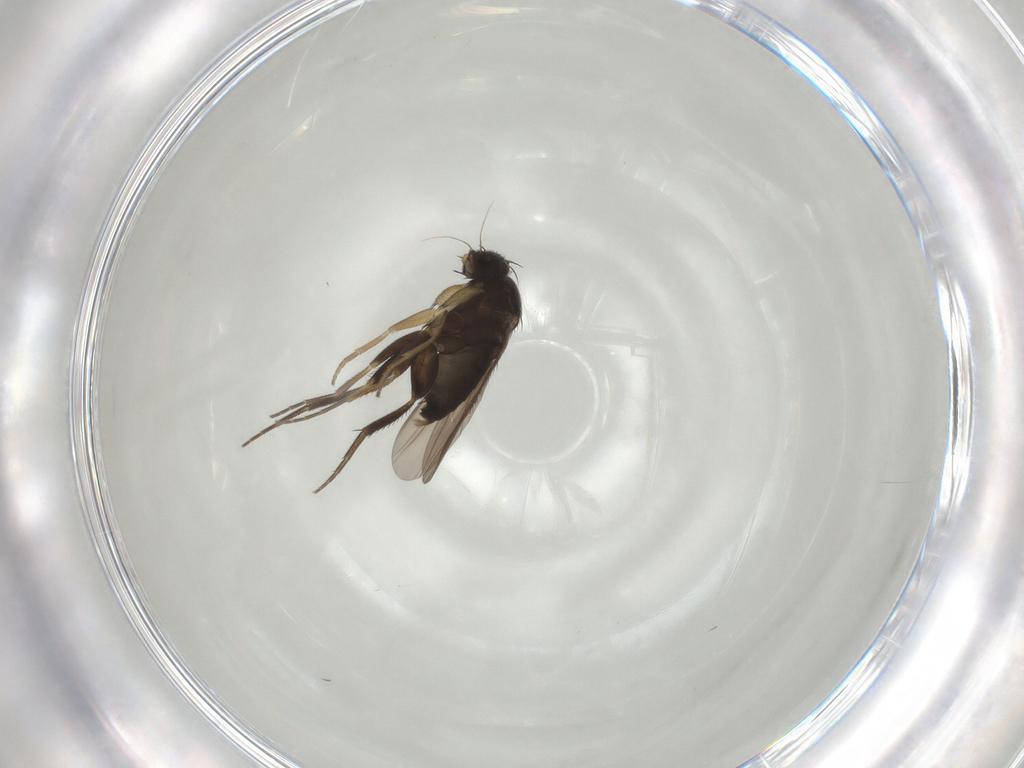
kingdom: Animalia
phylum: Arthropoda
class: Insecta
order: Diptera
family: Phoridae
